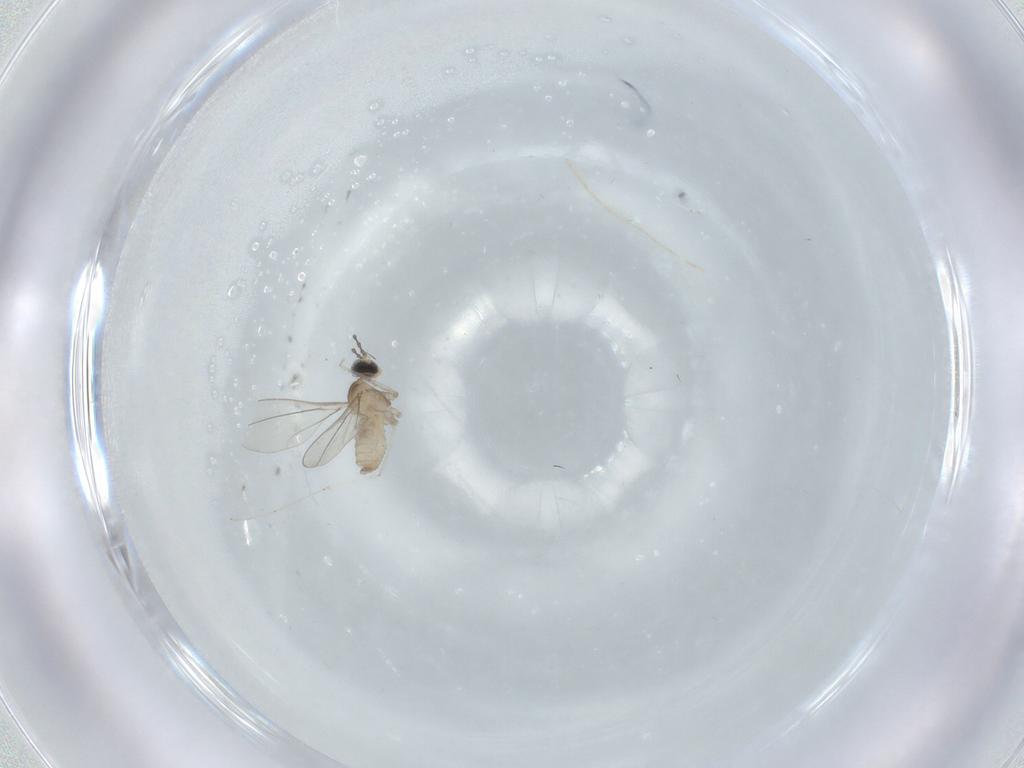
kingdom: Animalia
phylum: Arthropoda
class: Insecta
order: Diptera
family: Cecidomyiidae
